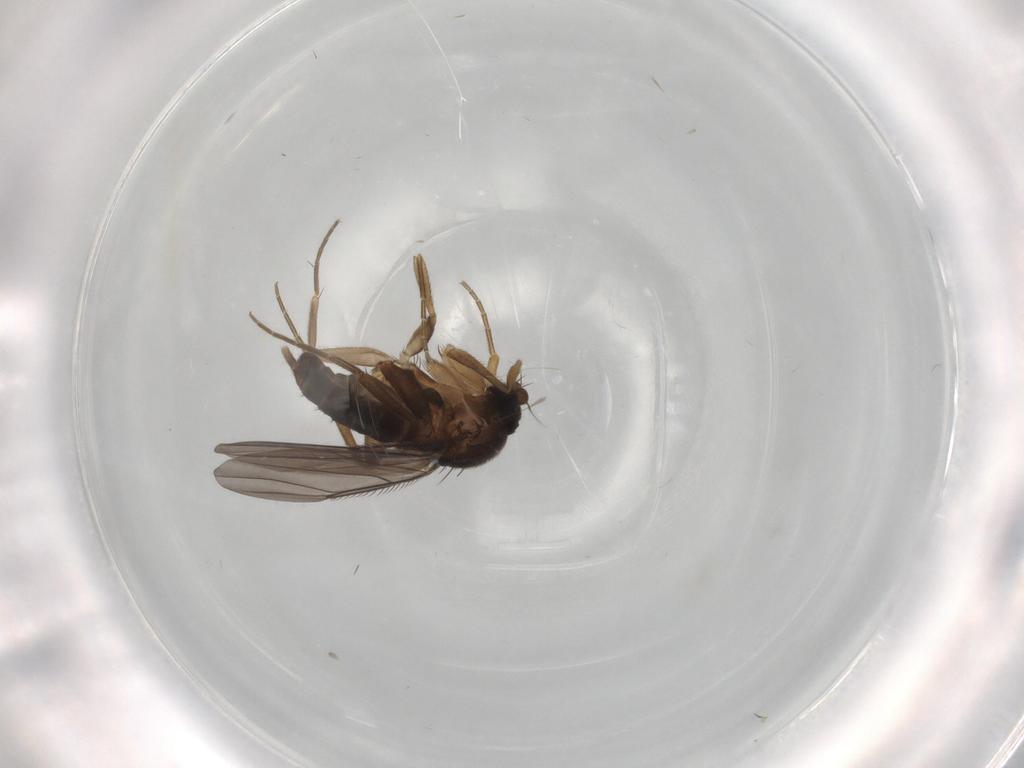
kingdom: Animalia
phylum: Arthropoda
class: Insecta
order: Diptera
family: Phoridae
